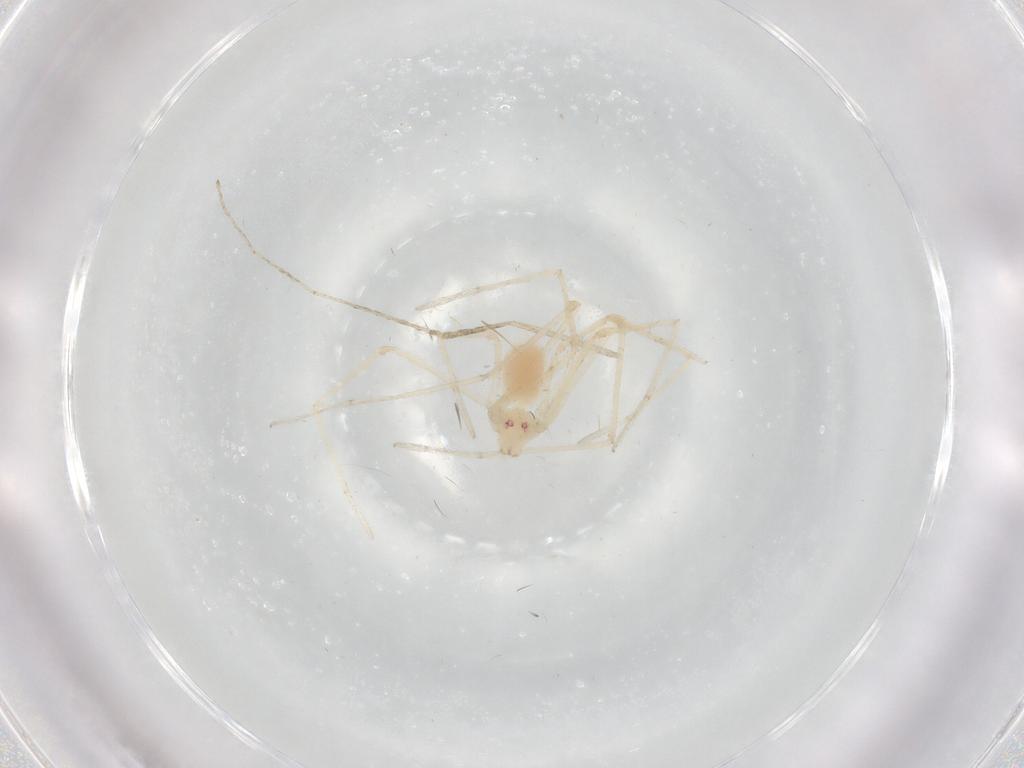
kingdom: Animalia
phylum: Arthropoda
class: Arachnida
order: Araneae
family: Pholcidae
